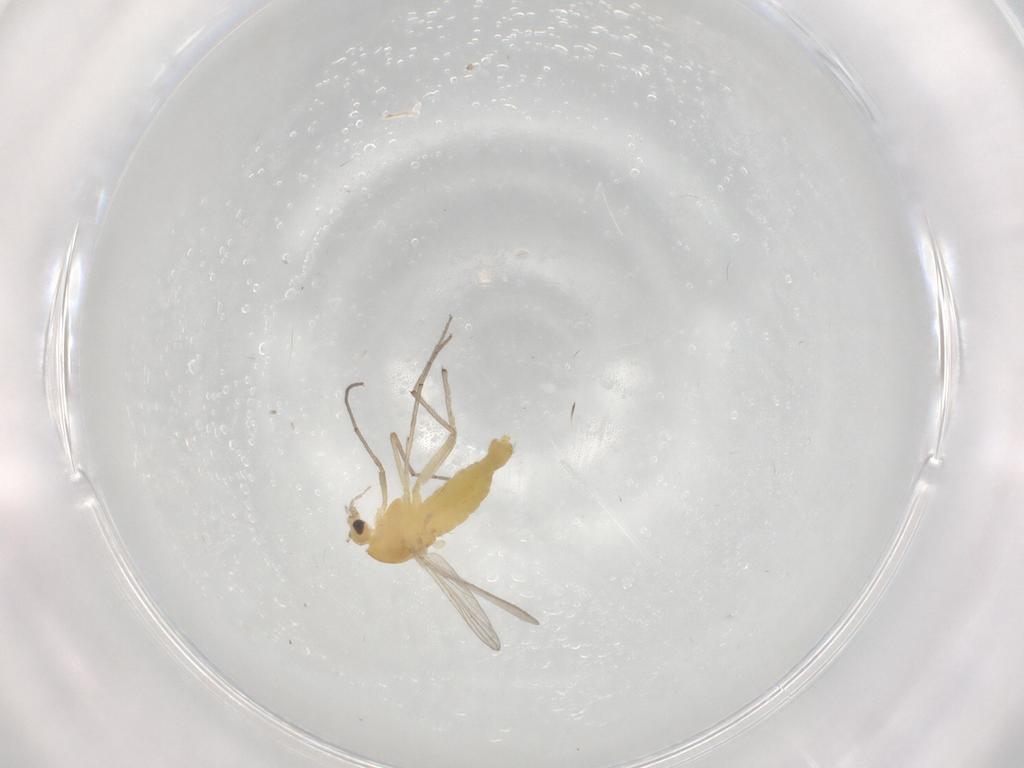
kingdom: Animalia
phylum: Arthropoda
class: Insecta
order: Diptera
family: Chironomidae
